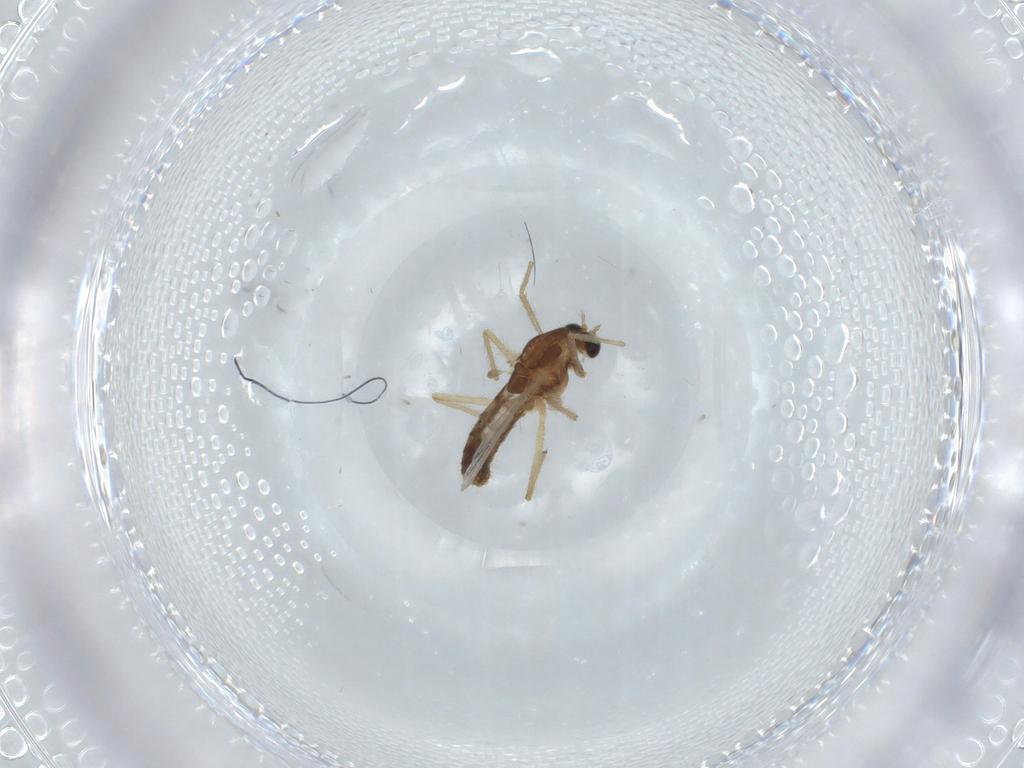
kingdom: Animalia
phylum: Arthropoda
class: Insecta
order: Diptera
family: Chironomidae
